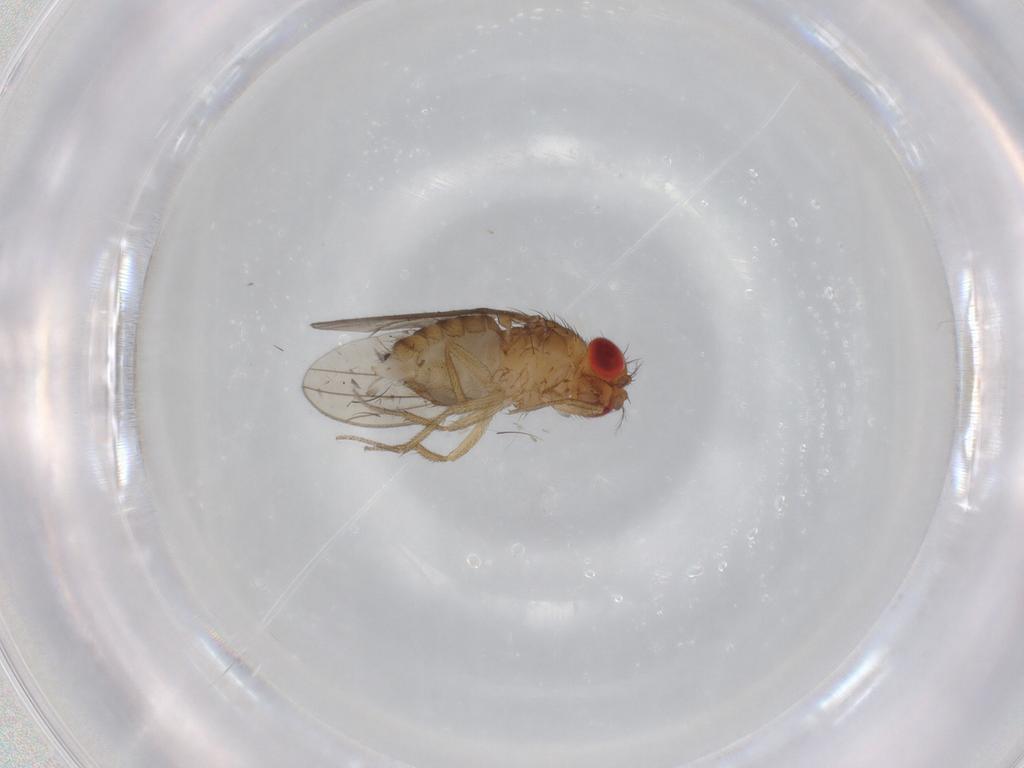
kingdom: Animalia
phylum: Arthropoda
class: Insecta
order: Diptera
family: Drosophilidae
